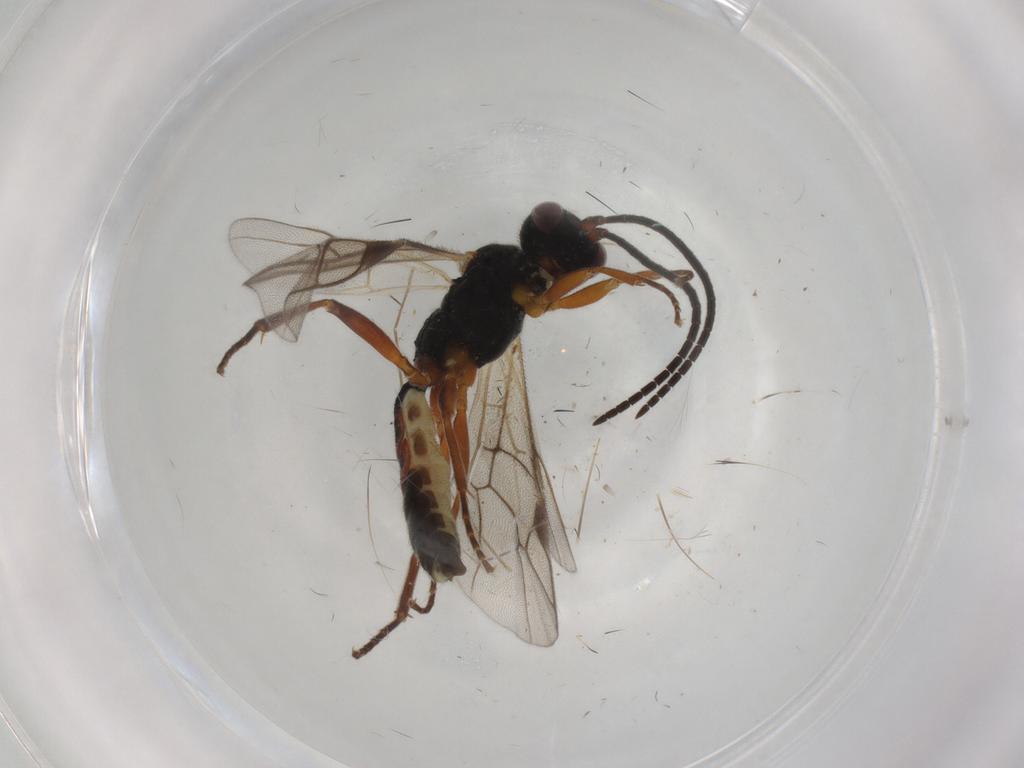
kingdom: Animalia
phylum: Arthropoda
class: Insecta
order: Hymenoptera
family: Ichneumonidae
